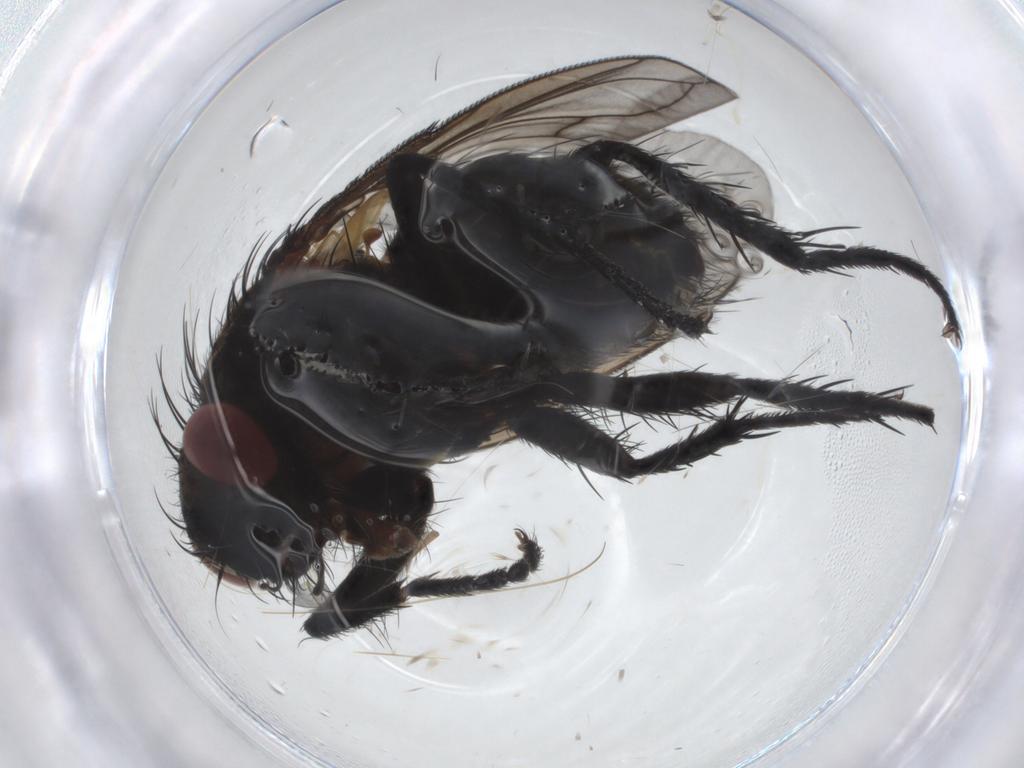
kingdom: Animalia
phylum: Arthropoda
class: Insecta
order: Diptera
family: Tachinidae
